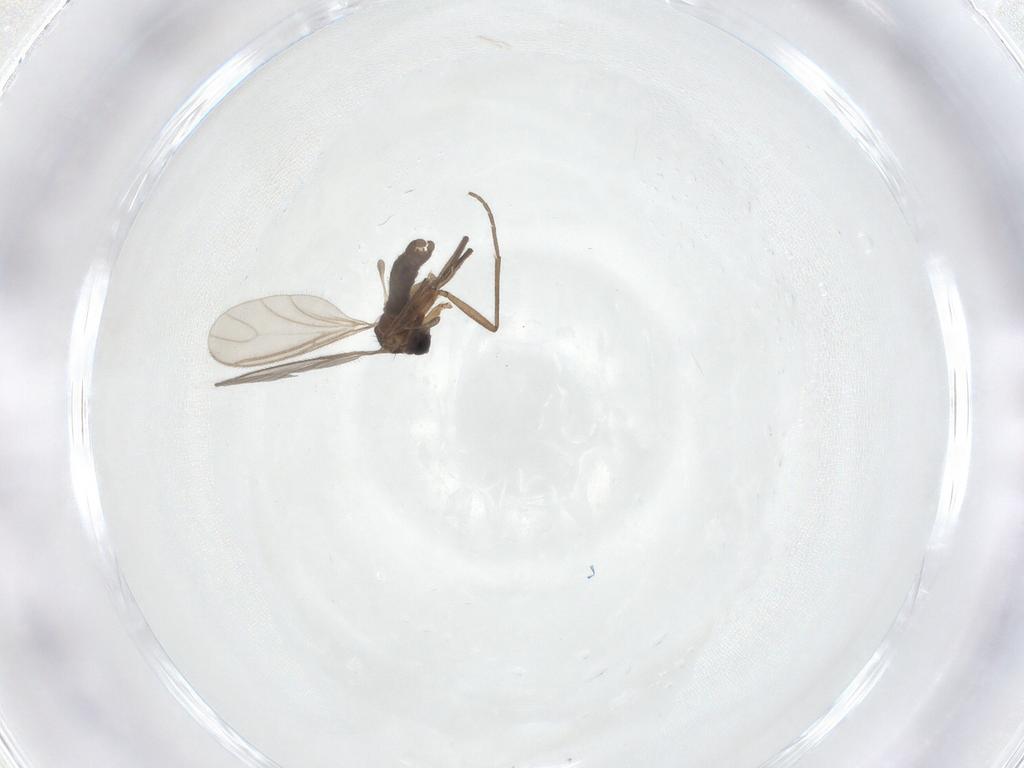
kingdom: Animalia
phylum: Arthropoda
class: Insecta
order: Diptera
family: Sciaridae
